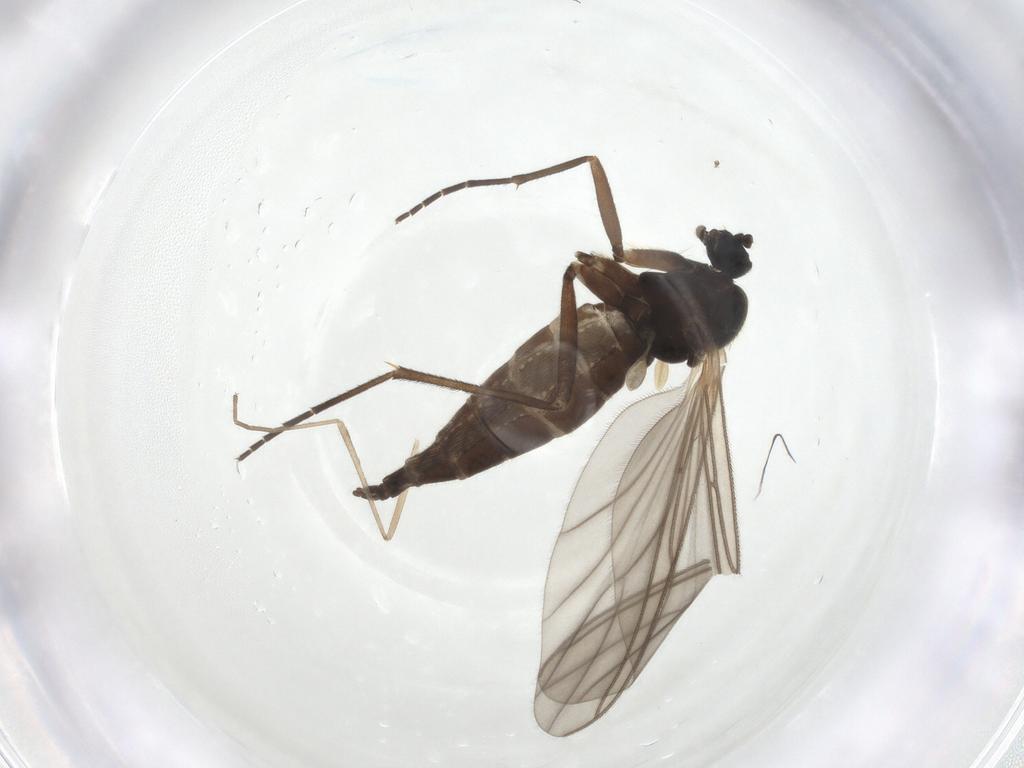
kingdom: Animalia
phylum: Arthropoda
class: Insecta
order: Diptera
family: Sciaridae
